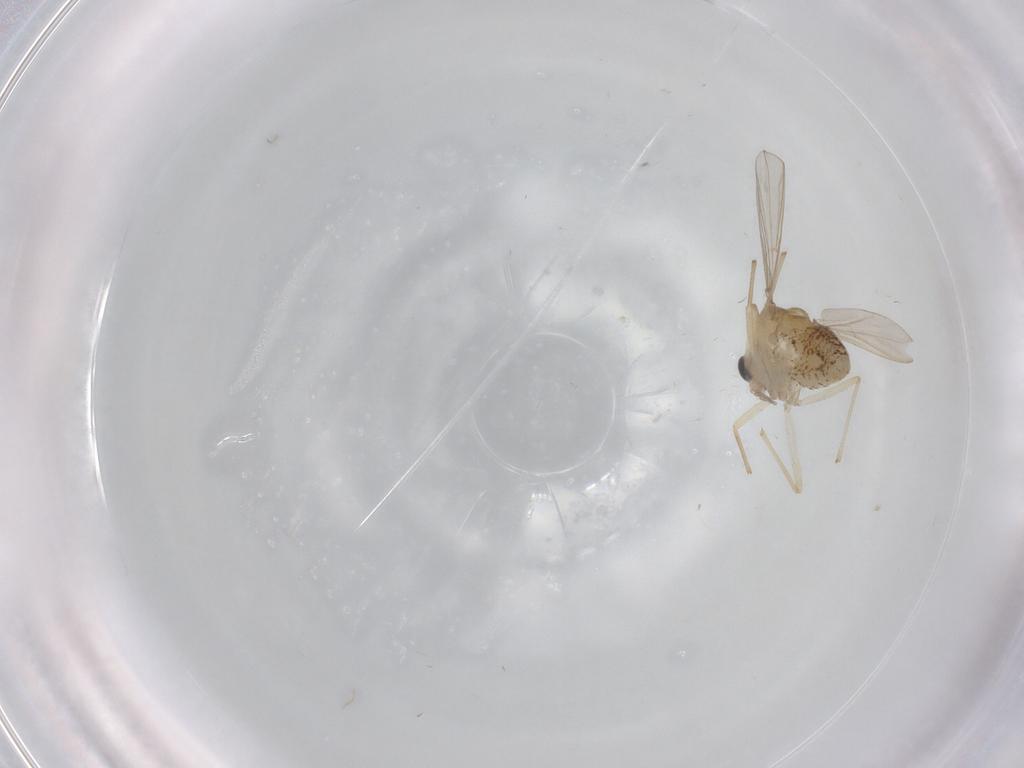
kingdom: Animalia
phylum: Arthropoda
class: Insecta
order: Diptera
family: Chironomidae
